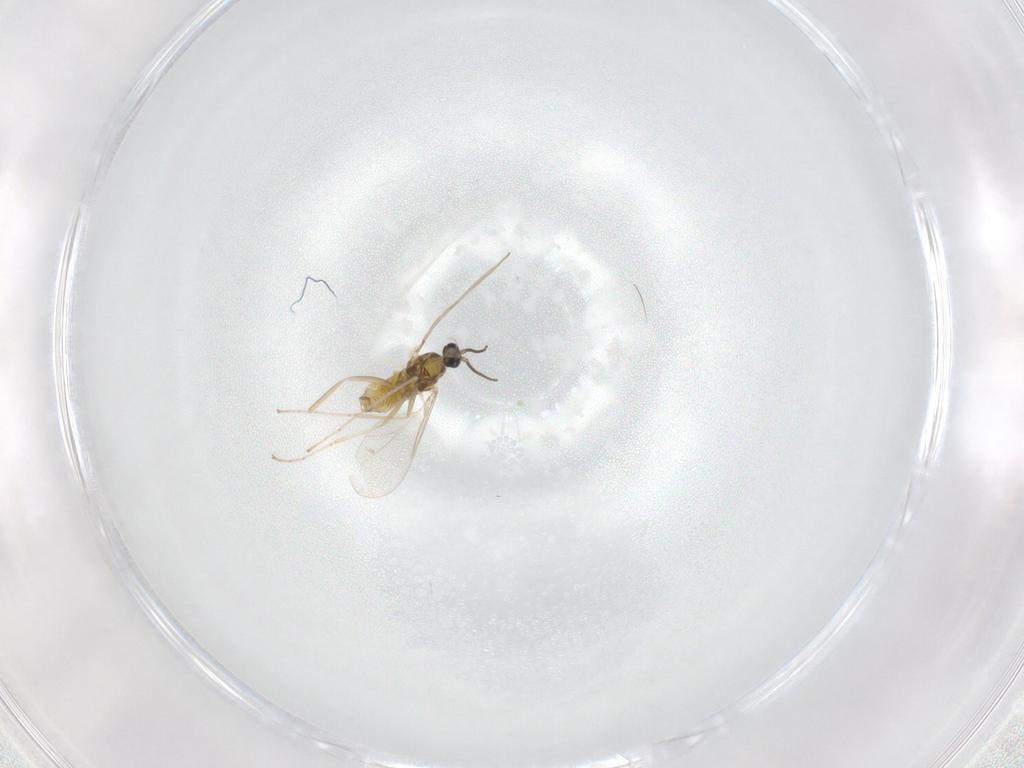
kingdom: Animalia
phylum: Arthropoda
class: Insecta
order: Diptera
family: Cecidomyiidae
